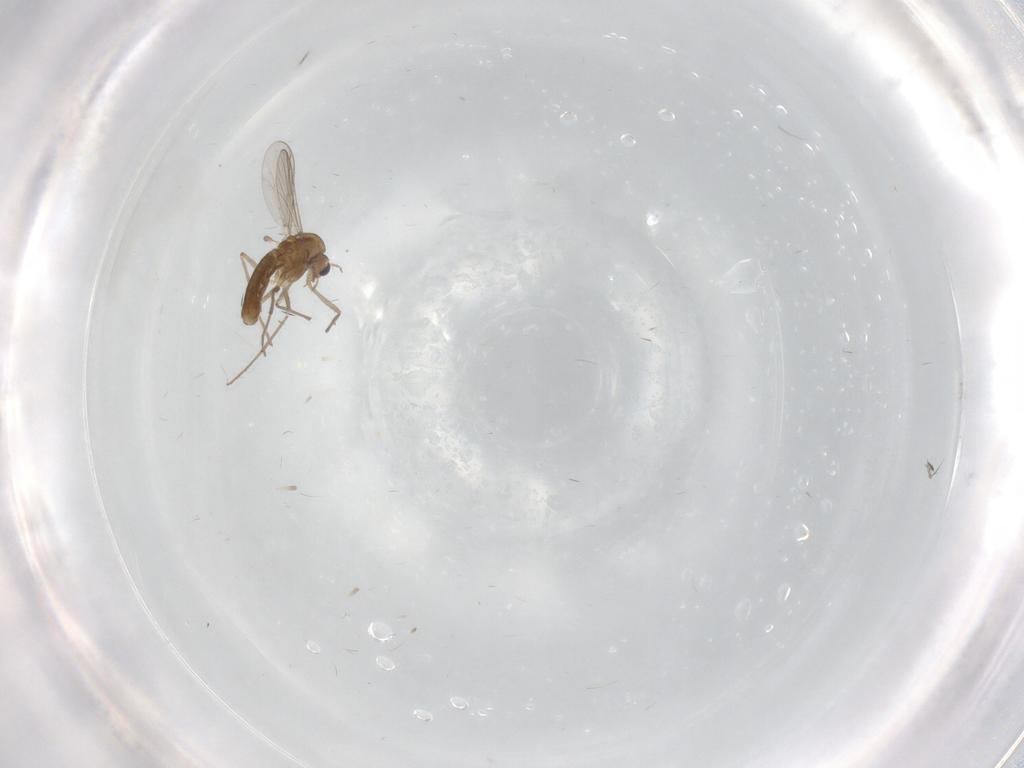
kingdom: Animalia
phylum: Arthropoda
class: Insecta
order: Diptera
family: Chironomidae
